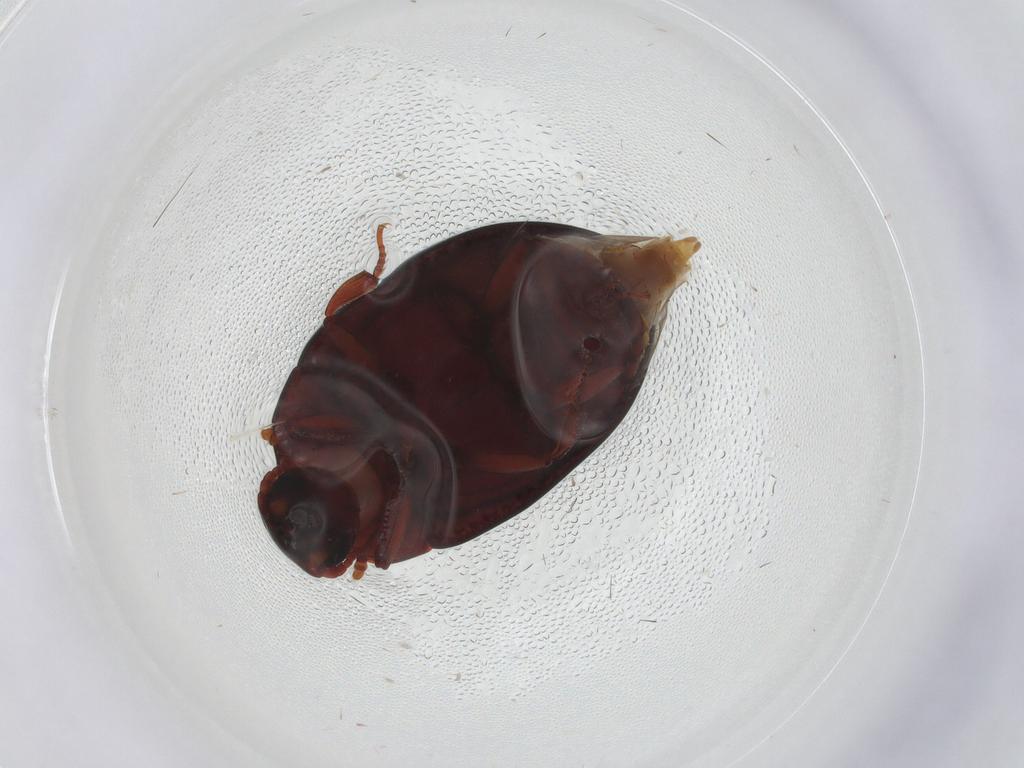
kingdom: Animalia
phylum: Arthropoda
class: Insecta
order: Coleoptera
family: Zopheridae
